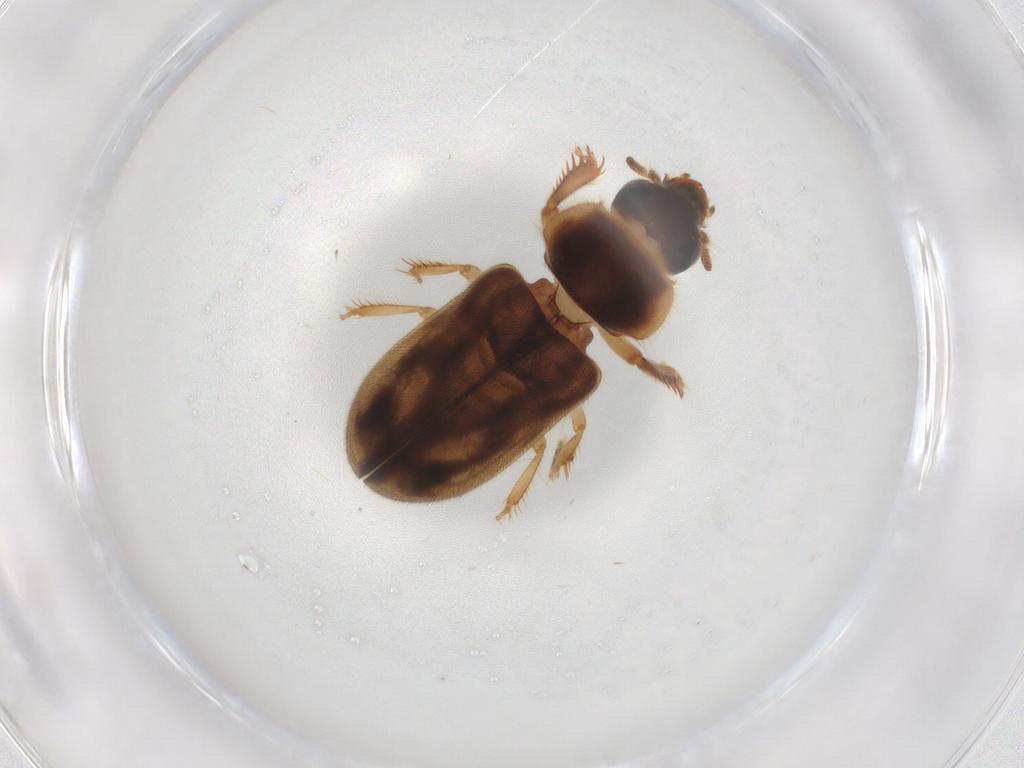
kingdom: Animalia
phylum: Arthropoda
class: Insecta
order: Coleoptera
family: Heteroceridae
